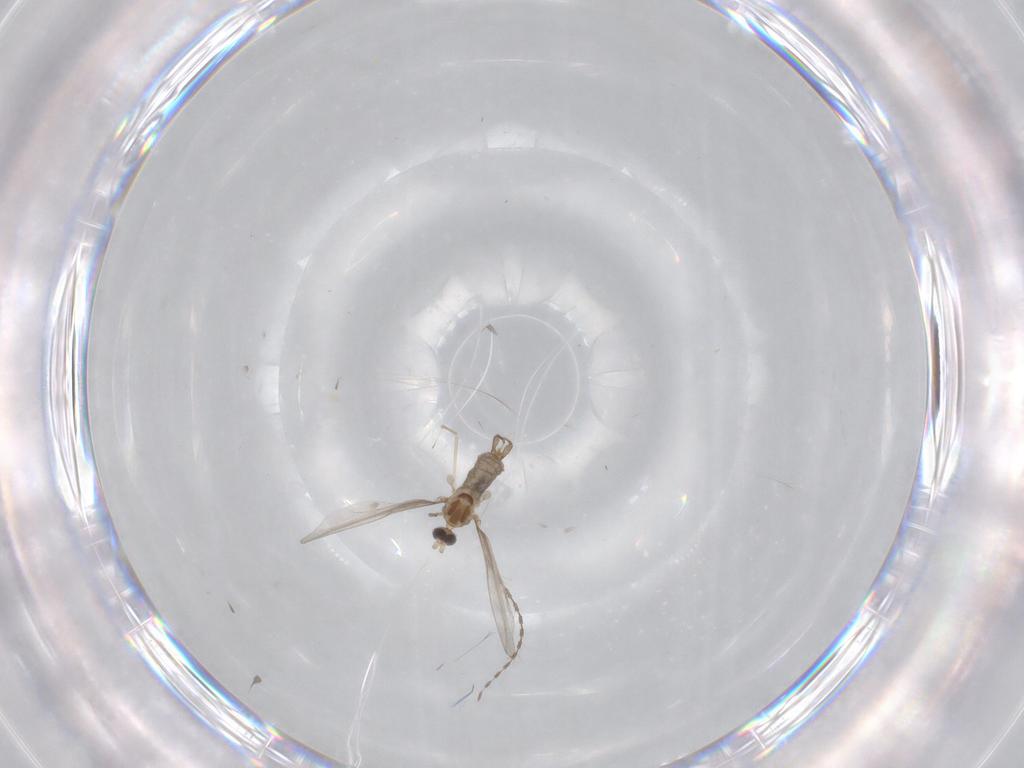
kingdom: Animalia
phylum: Arthropoda
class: Insecta
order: Diptera
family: Cecidomyiidae
